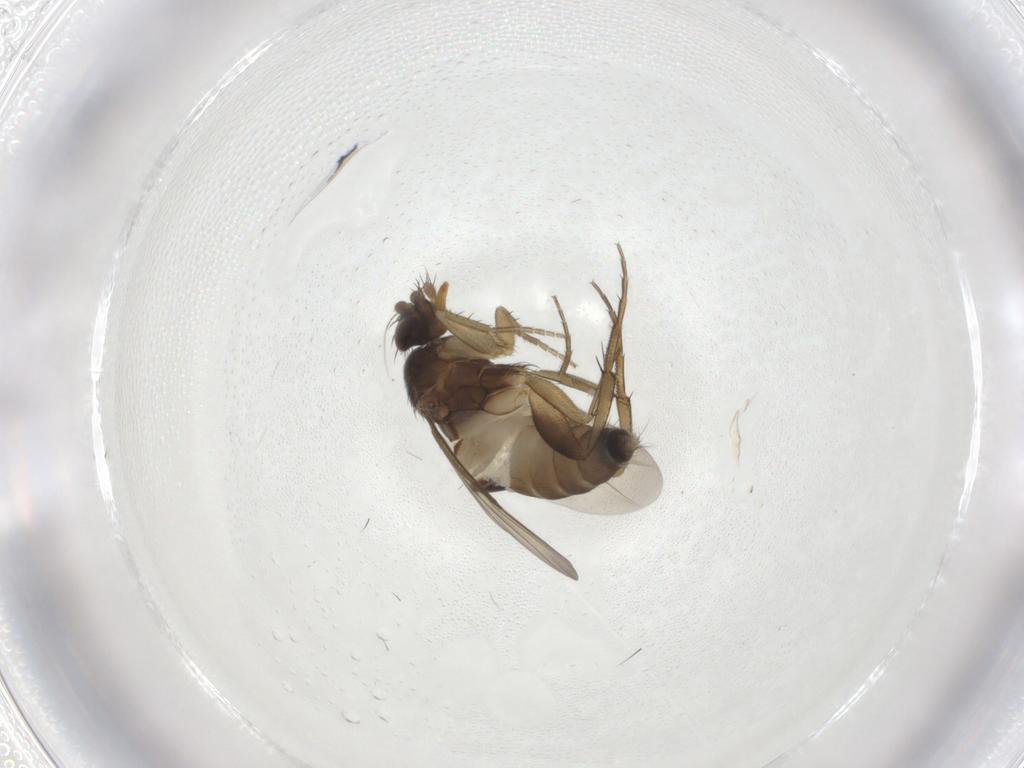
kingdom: Animalia
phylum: Arthropoda
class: Insecta
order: Diptera
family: Phoridae
